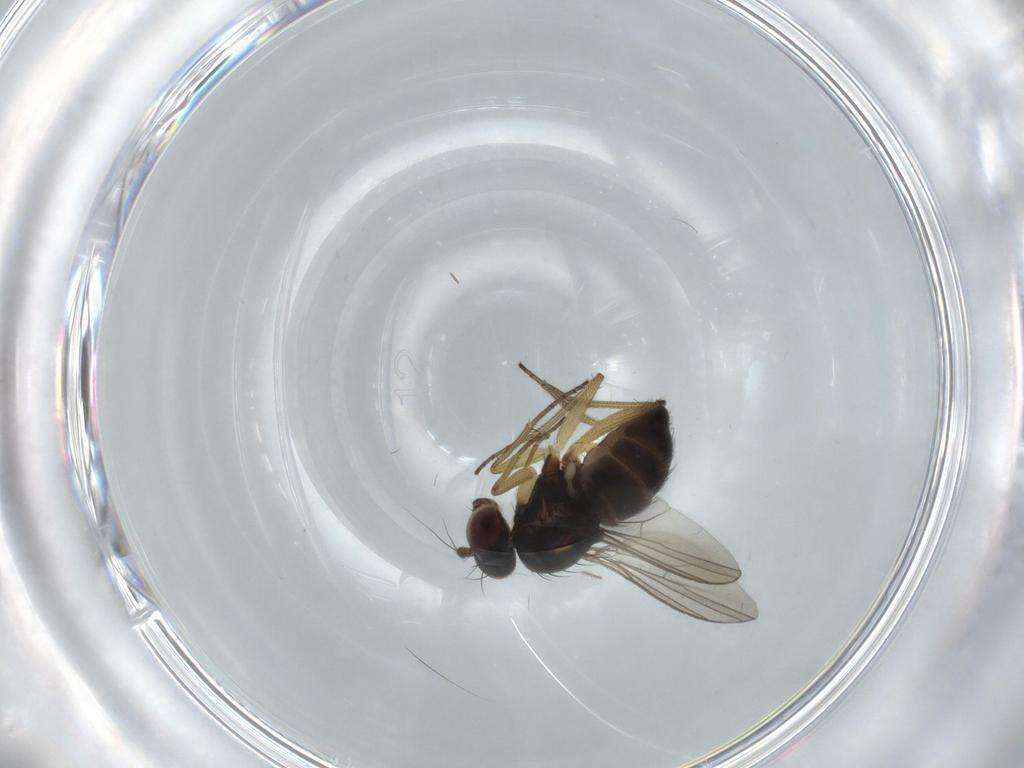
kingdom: Animalia
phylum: Arthropoda
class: Insecta
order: Diptera
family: Dolichopodidae
